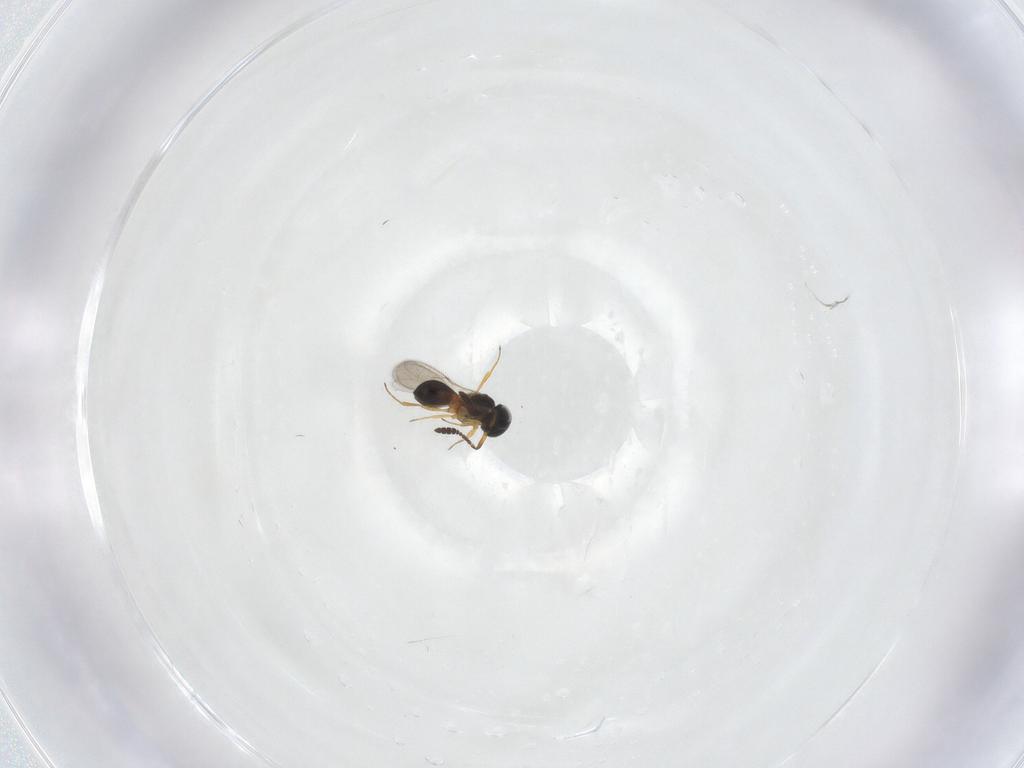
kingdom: Animalia
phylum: Arthropoda
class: Insecta
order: Hymenoptera
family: Scelionidae
